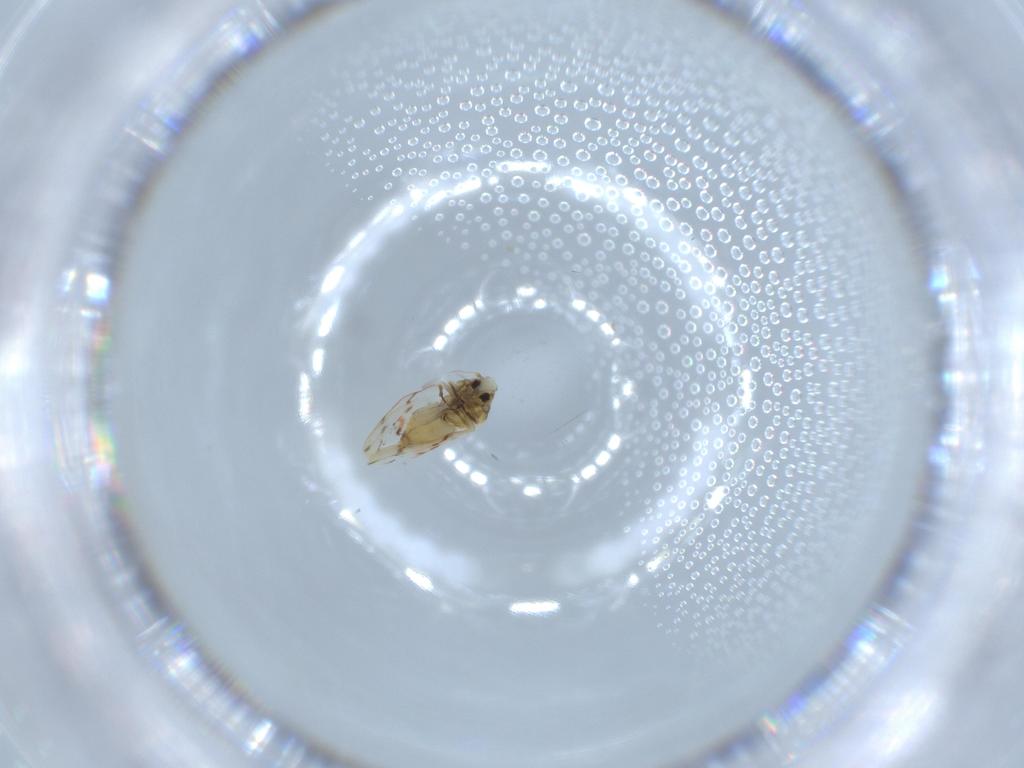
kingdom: Animalia
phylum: Arthropoda
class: Insecta
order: Hemiptera
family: Aleyrodidae
